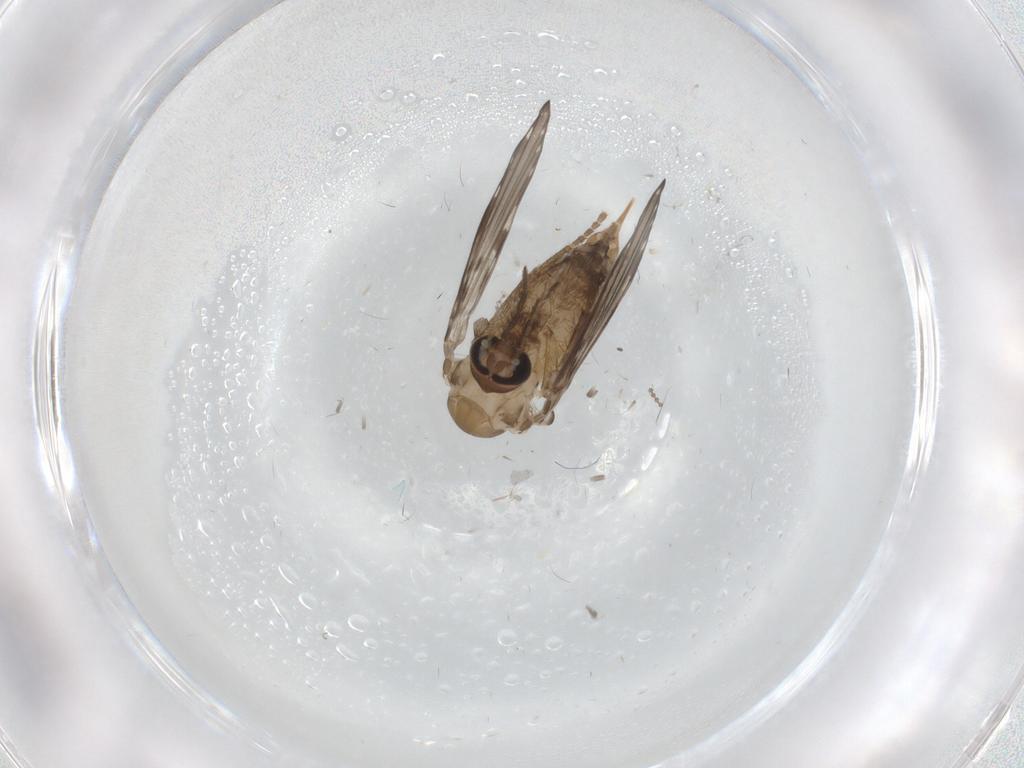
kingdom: Animalia
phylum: Arthropoda
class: Insecta
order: Diptera
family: Psychodidae
